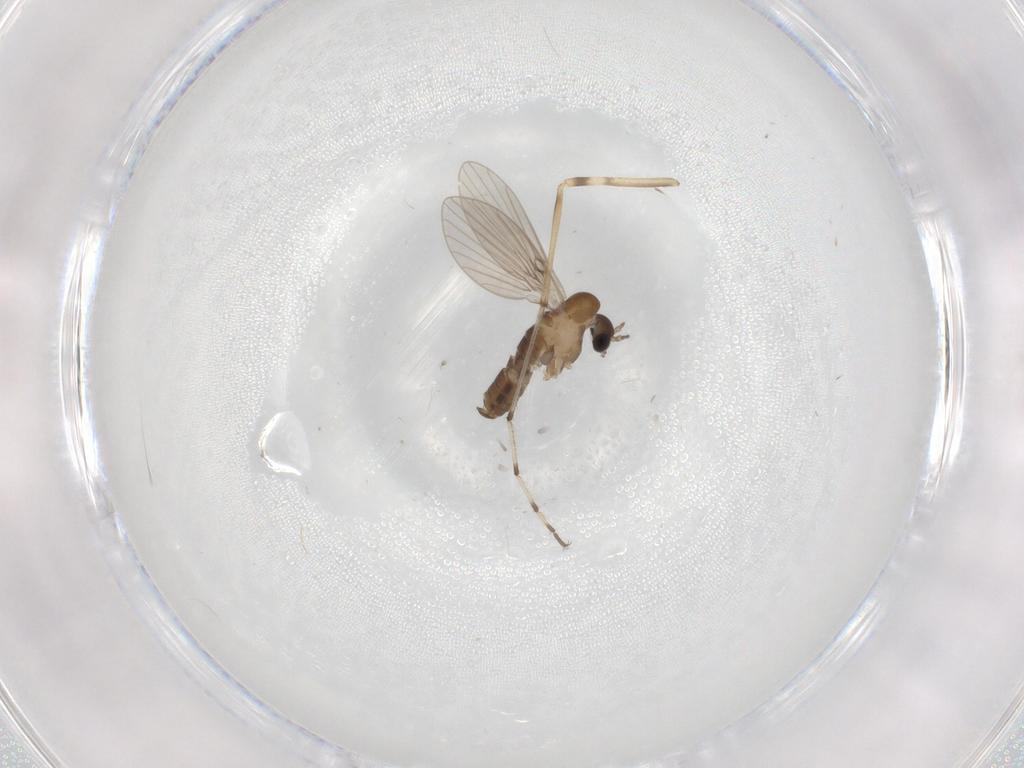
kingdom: Animalia
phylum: Arthropoda
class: Insecta
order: Diptera
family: Psychodidae
